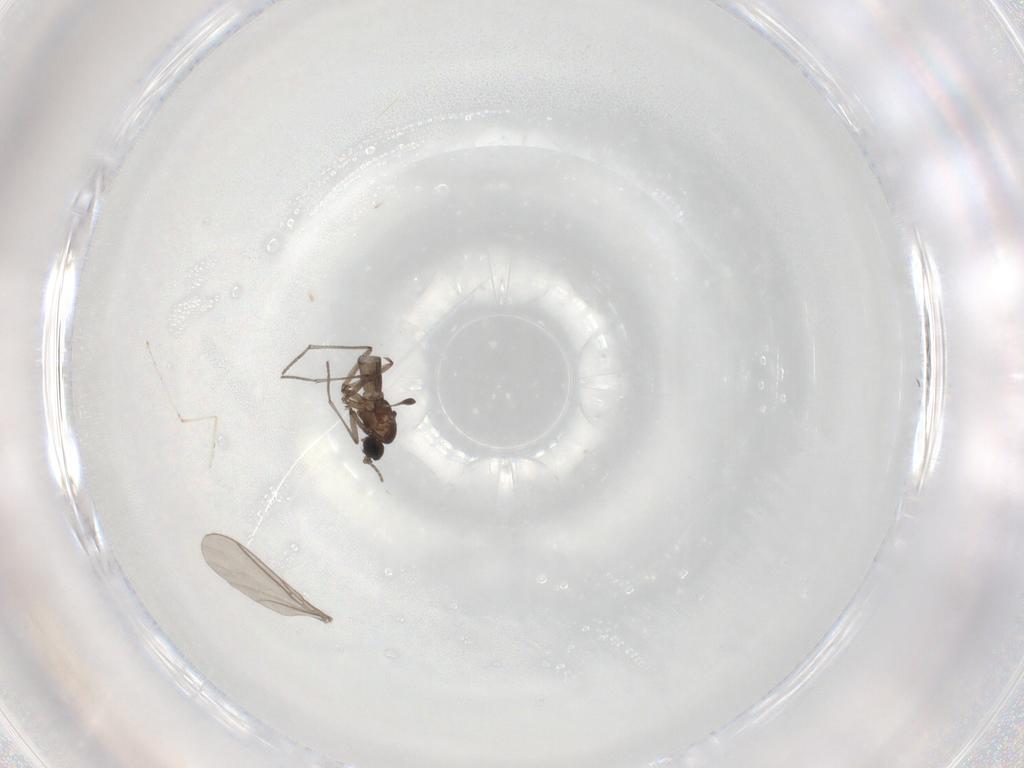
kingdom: Animalia
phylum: Arthropoda
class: Insecta
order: Diptera
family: Cecidomyiidae
